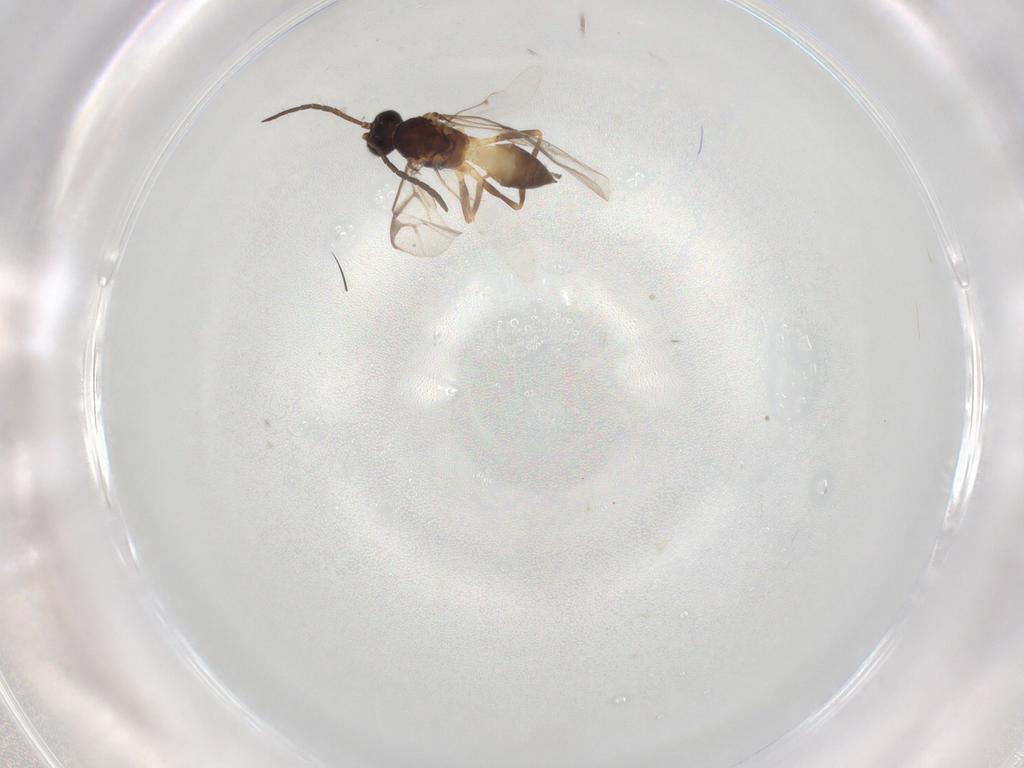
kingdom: Animalia
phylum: Arthropoda
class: Insecta
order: Hymenoptera
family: Braconidae
